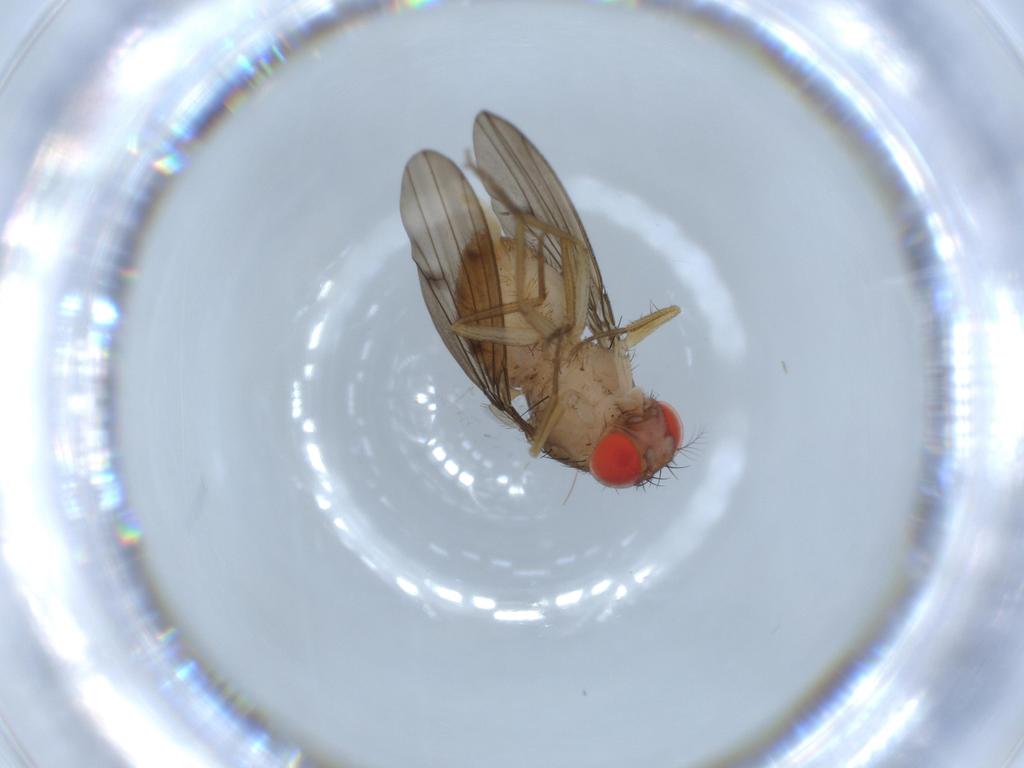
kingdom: Animalia
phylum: Arthropoda
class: Insecta
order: Diptera
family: Drosophilidae
